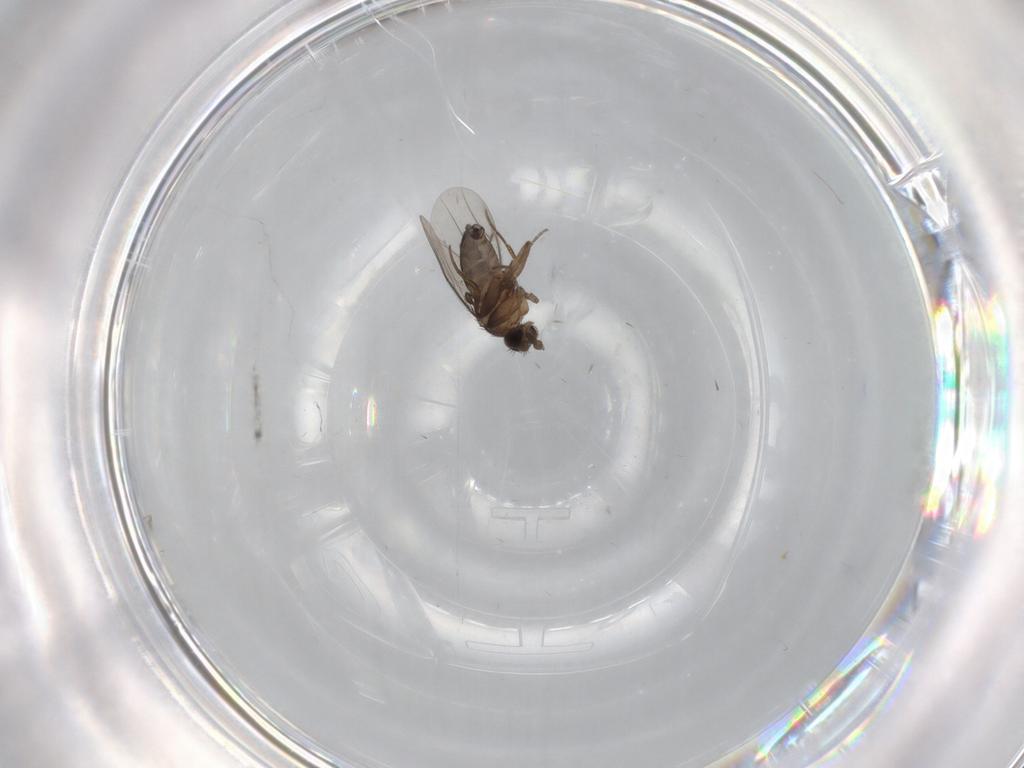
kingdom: Animalia
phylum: Arthropoda
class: Insecta
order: Diptera
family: Phoridae
